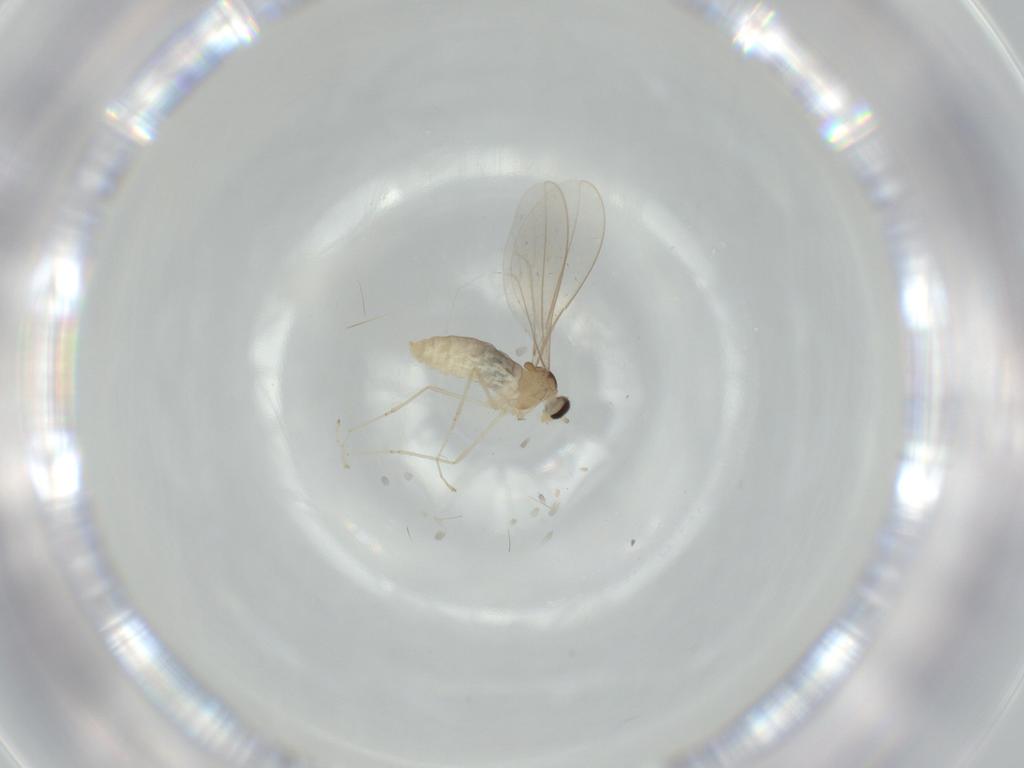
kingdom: Animalia
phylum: Arthropoda
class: Insecta
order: Diptera
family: Cecidomyiidae
